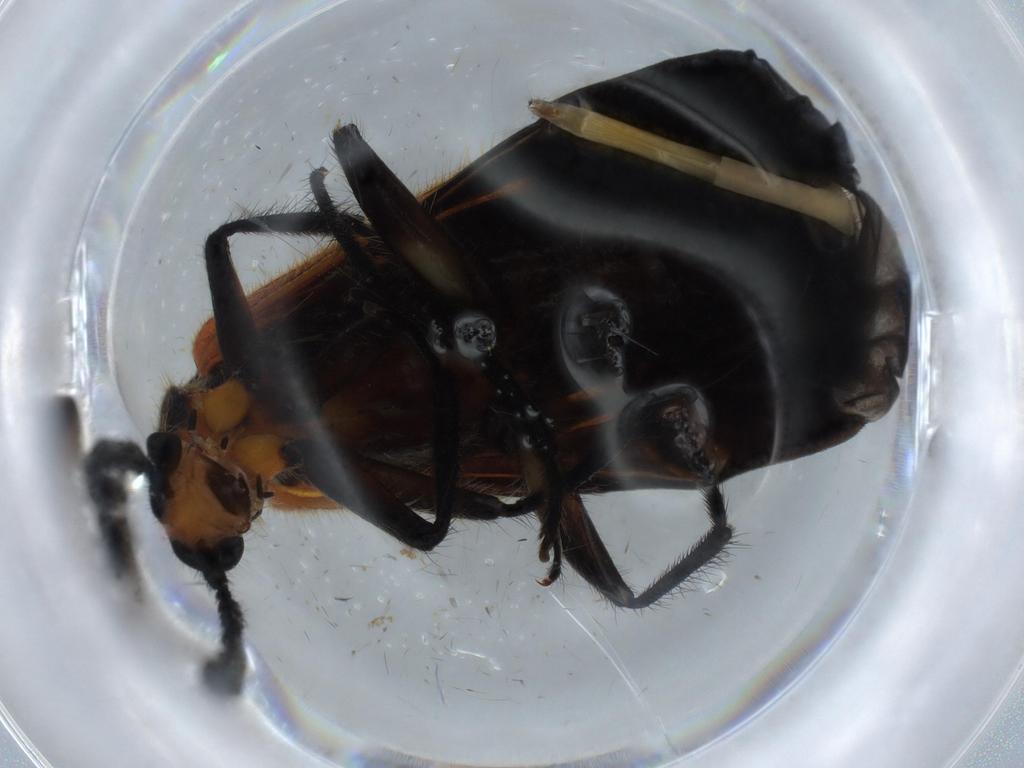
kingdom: Animalia
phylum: Arthropoda
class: Insecta
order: Coleoptera
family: Cleridae
